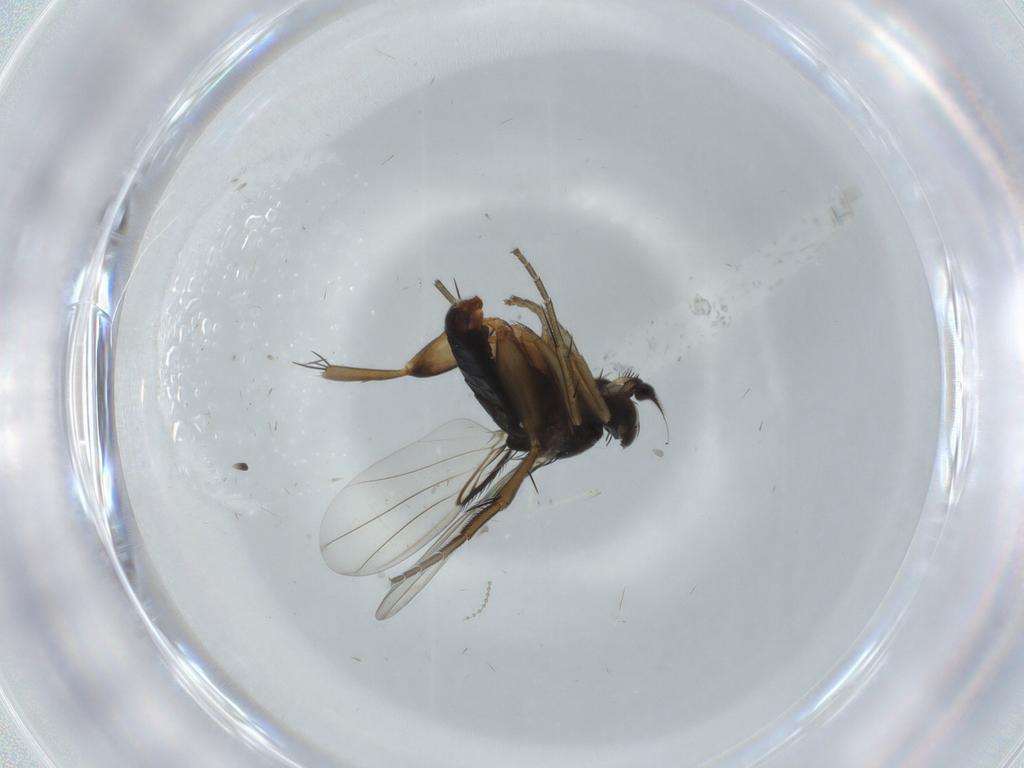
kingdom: Animalia
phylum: Arthropoda
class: Insecta
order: Diptera
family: Phoridae
